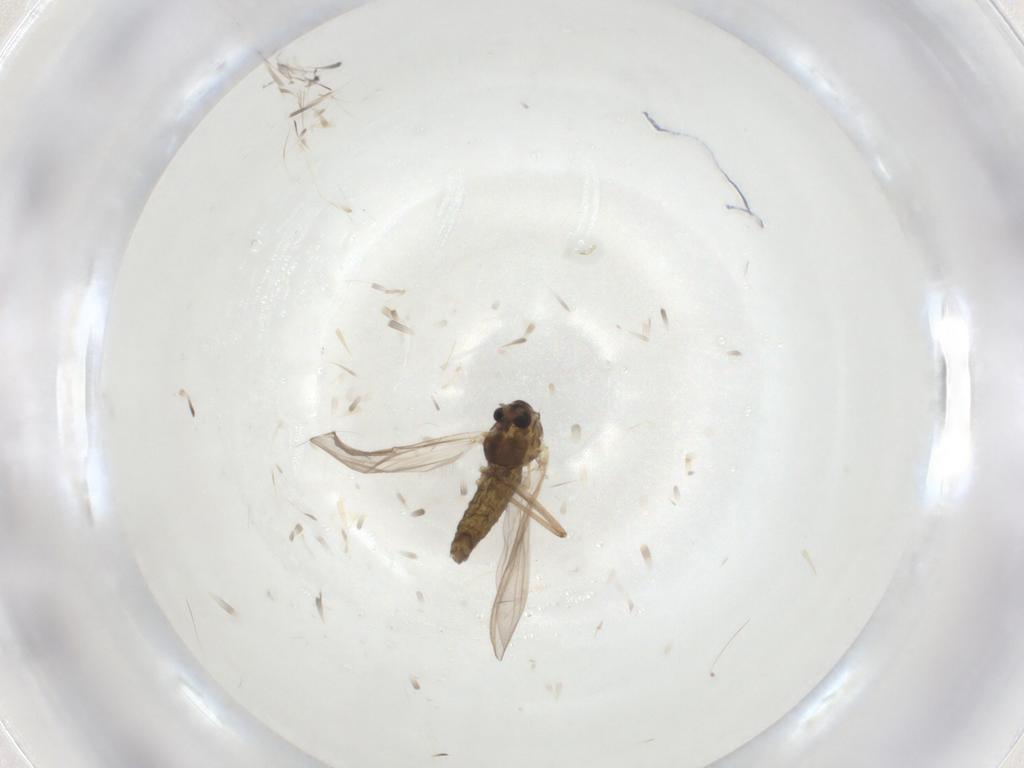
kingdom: Animalia
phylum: Arthropoda
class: Insecta
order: Diptera
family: Chironomidae
